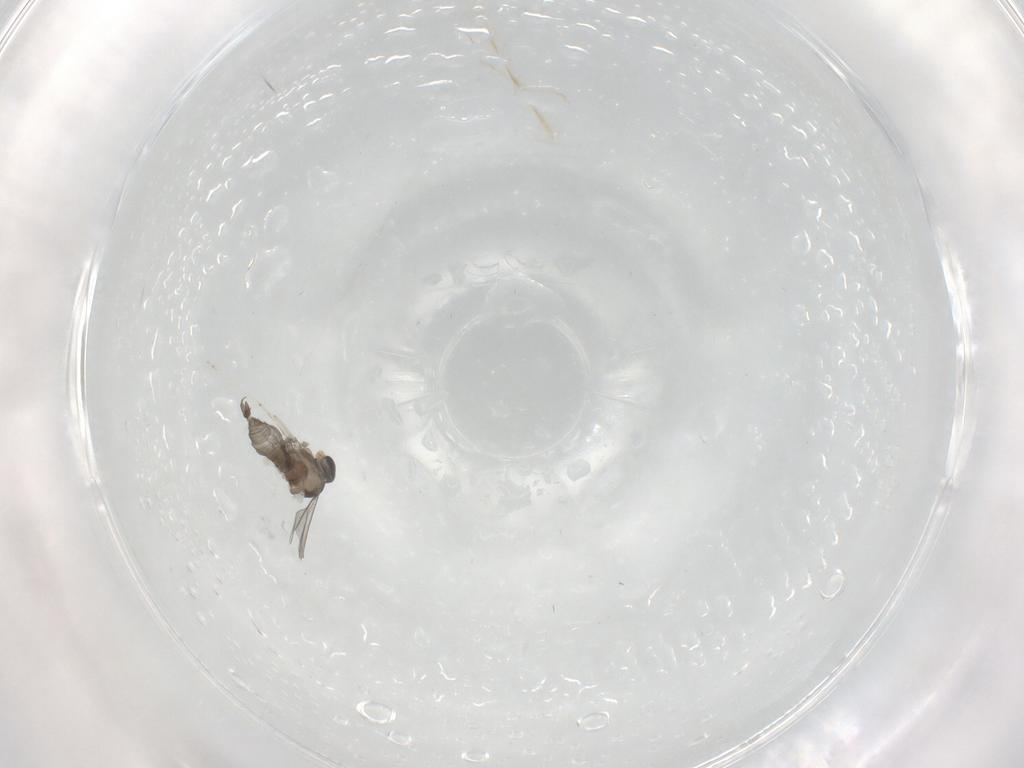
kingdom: Animalia
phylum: Arthropoda
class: Insecta
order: Diptera
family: Cecidomyiidae
